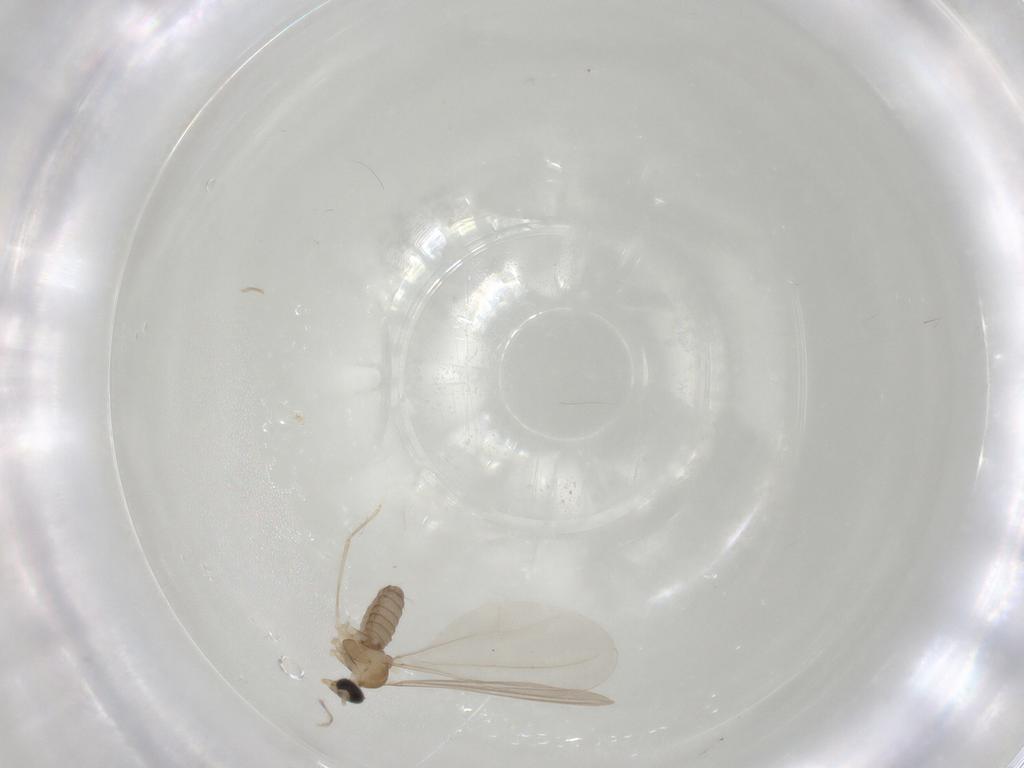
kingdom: Animalia
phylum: Arthropoda
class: Insecta
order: Diptera
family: Cecidomyiidae
